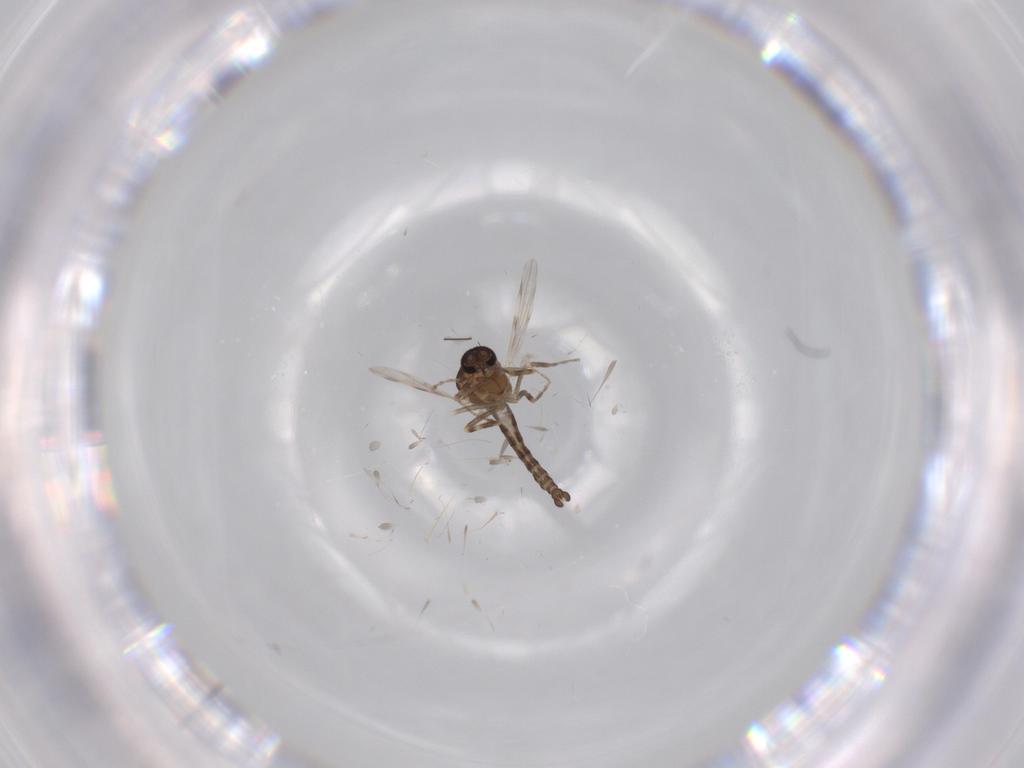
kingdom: Animalia
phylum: Arthropoda
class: Insecta
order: Diptera
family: Ceratopogonidae
